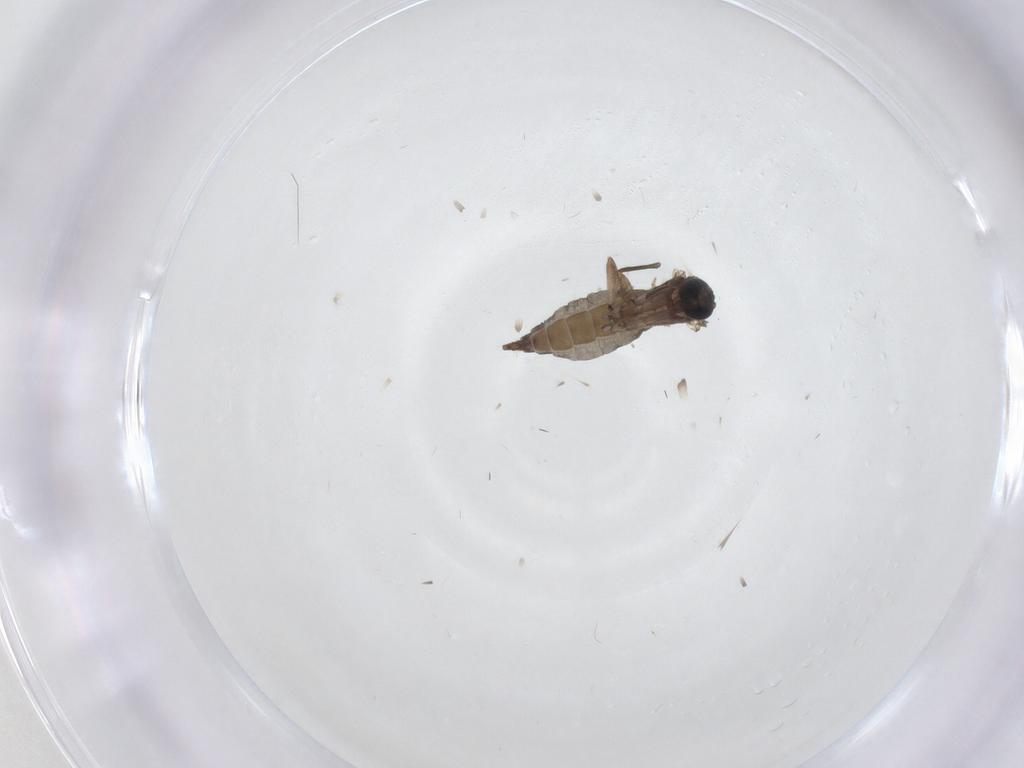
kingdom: Animalia
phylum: Arthropoda
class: Insecta
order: Diptera
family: Sciaridae
